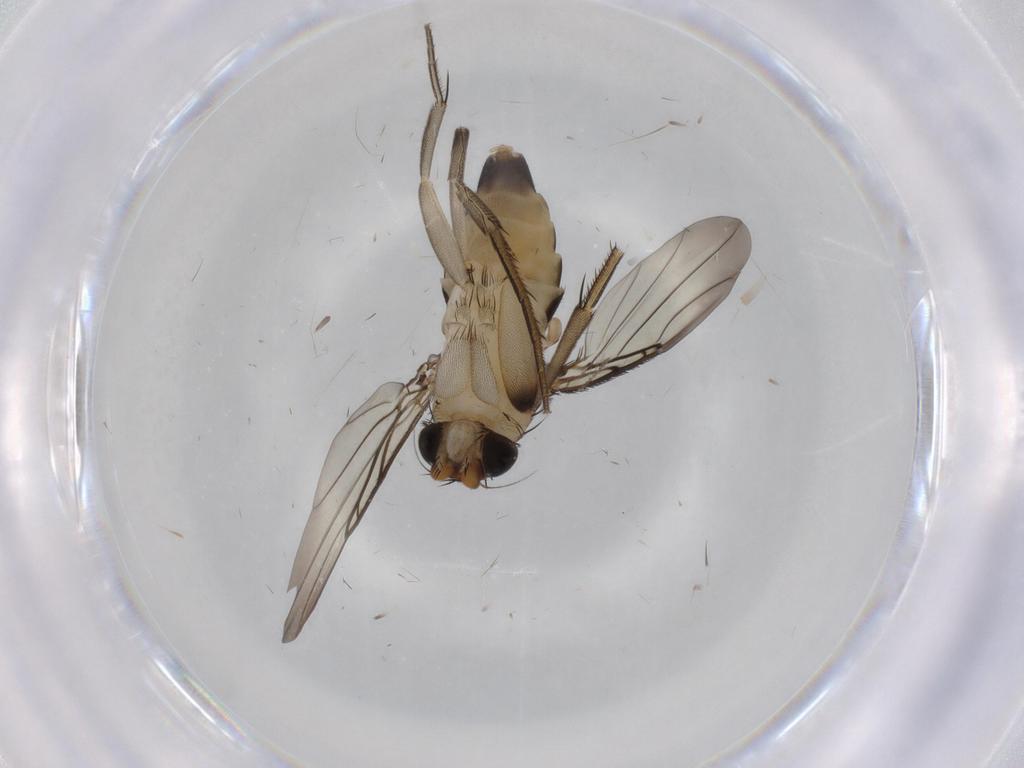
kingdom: Animalia
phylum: Arthropoda
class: Insecta
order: Diptera
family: Phoridae
